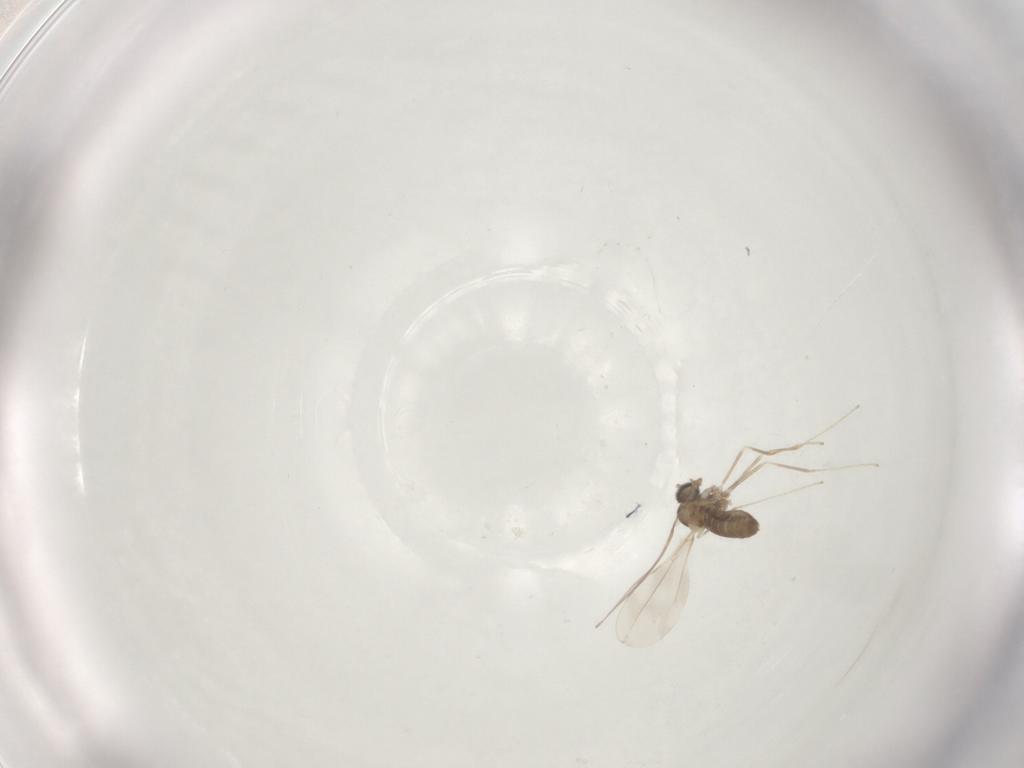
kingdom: Animalia
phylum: Arthropoda
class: Insecta
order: Diptera
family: Cecidomyiidae
